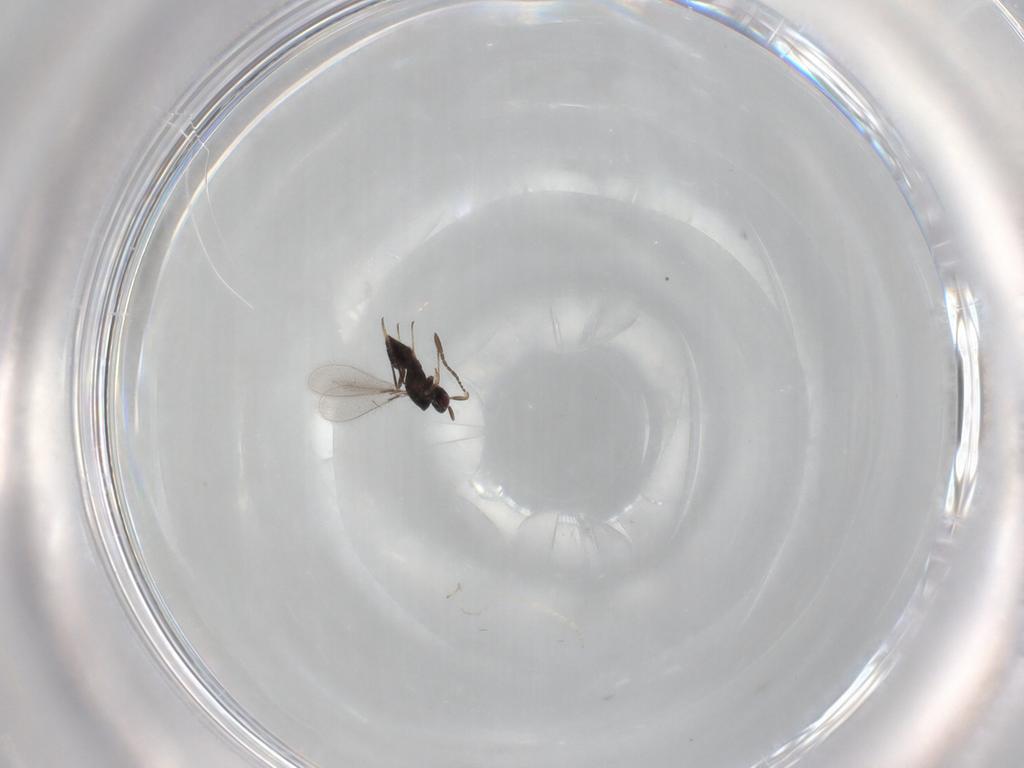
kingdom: Animalia
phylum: Arthropoda
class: Insecta
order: Hymenoptera
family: Mymaridae
